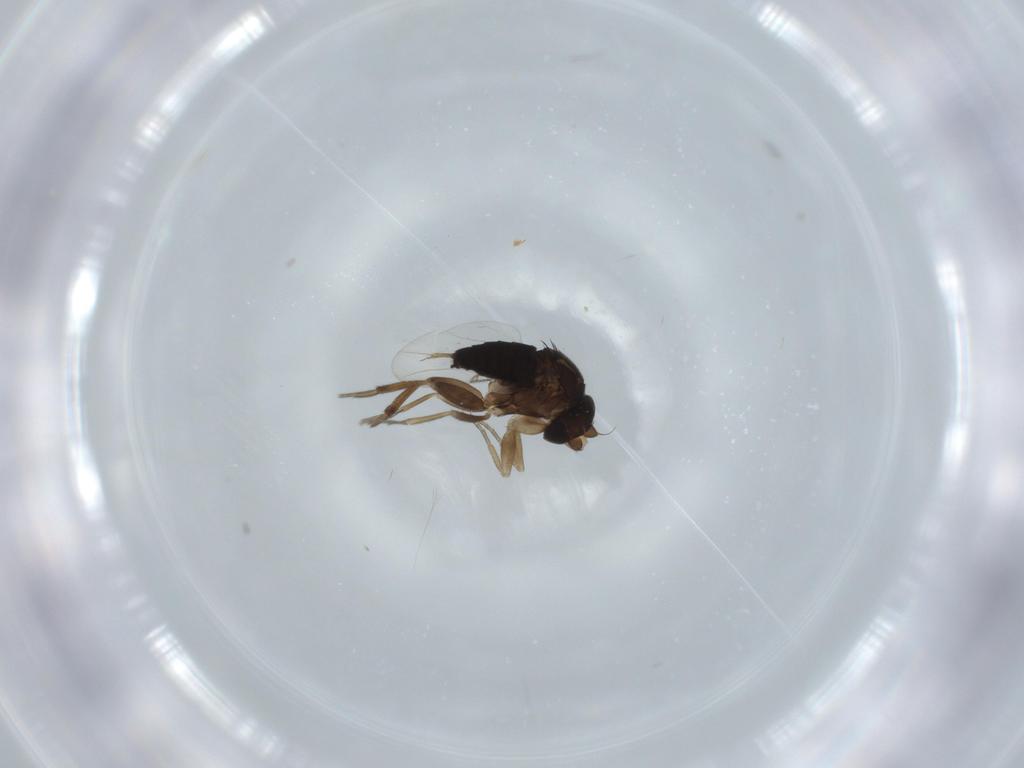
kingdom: Animalia
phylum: Arthropoda
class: Insecta
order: Diptera
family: Phoridae
